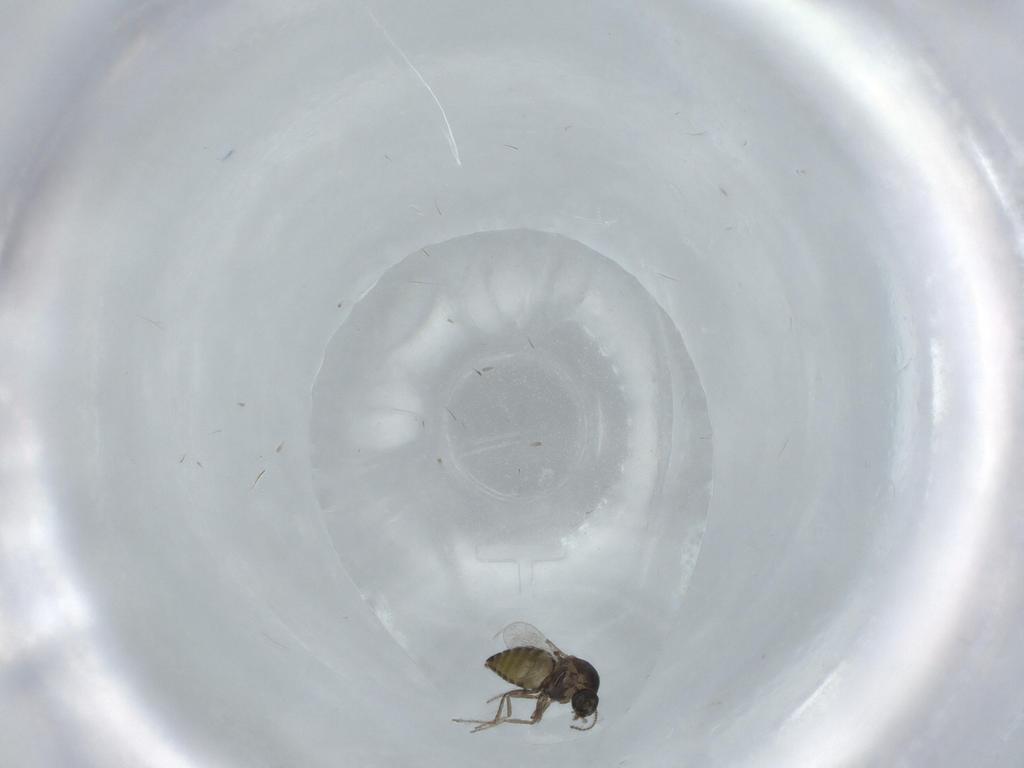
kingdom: Animalia
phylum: Arthropoda
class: Insecta
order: Diptera
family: Ceratopogonidae
